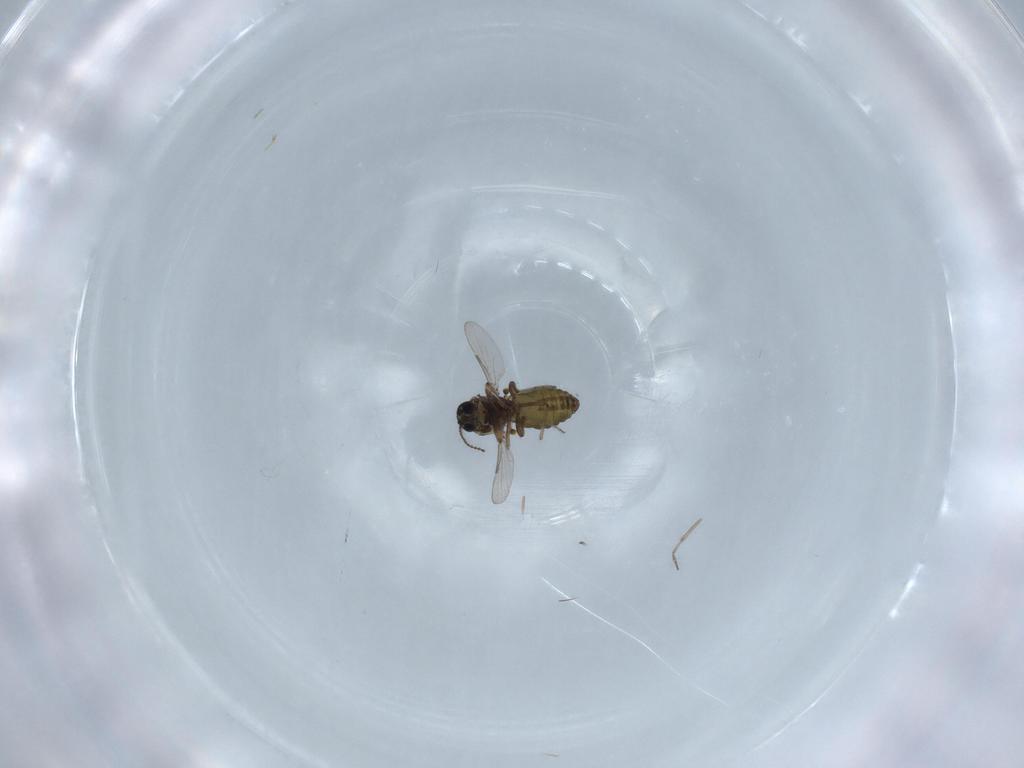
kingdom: Animalia
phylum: Arthropoda
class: Insecta
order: Diptera
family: Ceratopogonidae
